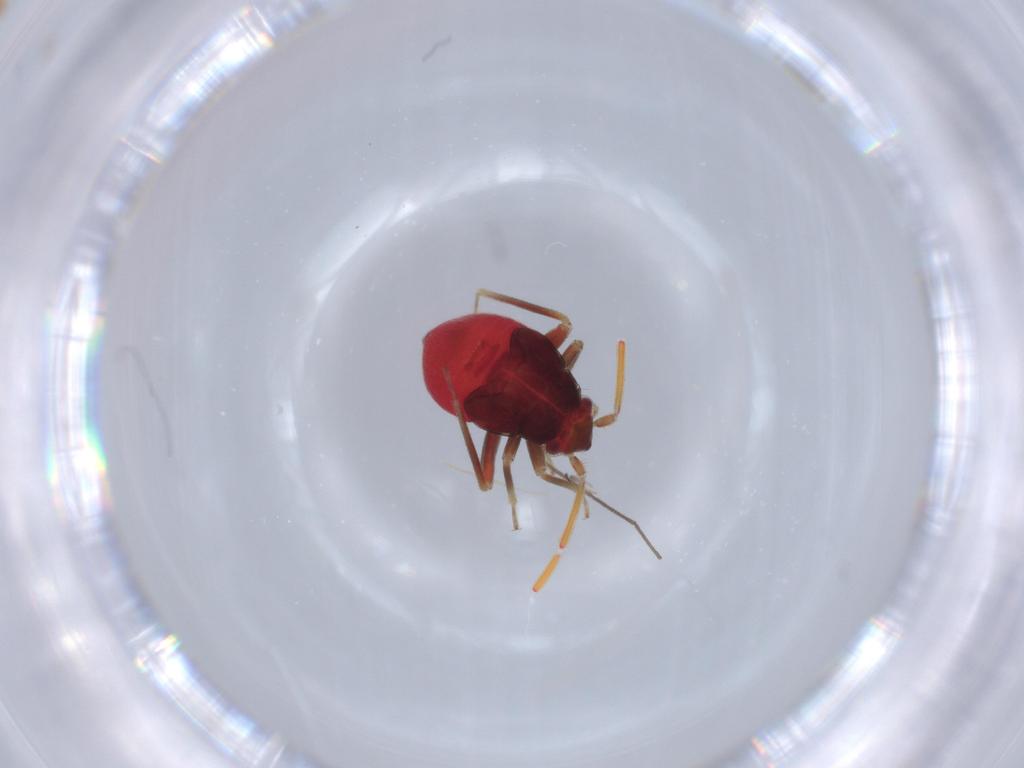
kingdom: Animalia
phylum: Arthropoda
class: Insecta
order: Hemiptera
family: Miridae
